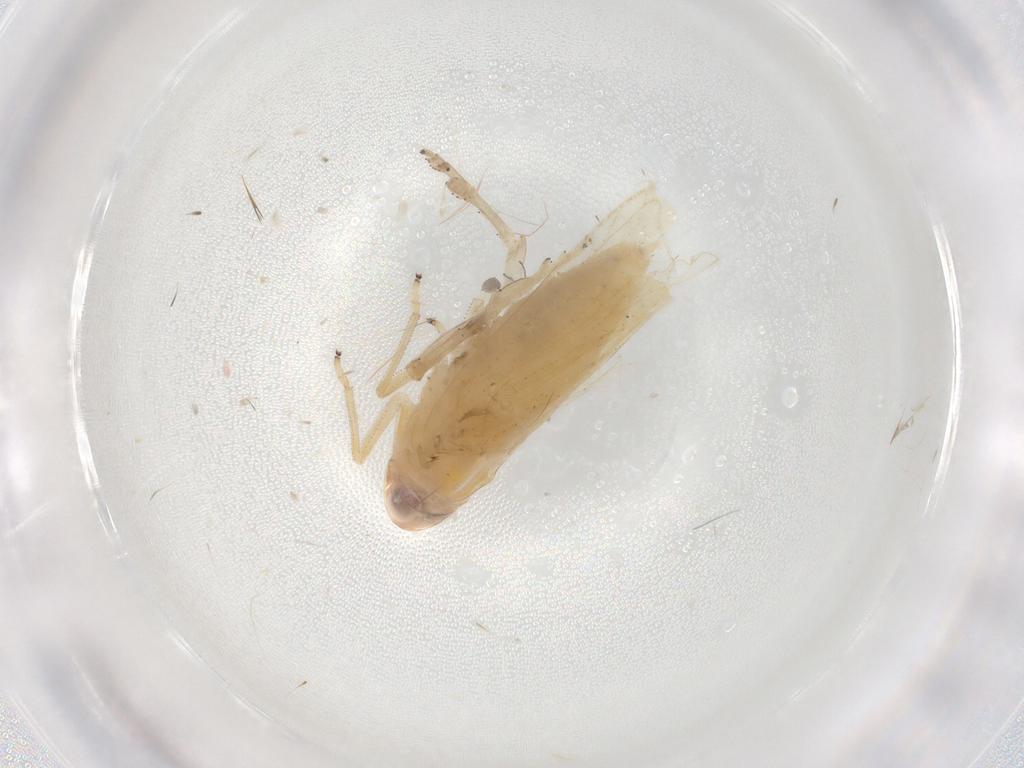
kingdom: Animalia
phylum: Arthropoda
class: Insecta
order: Hemiptera
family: Delphacidae
